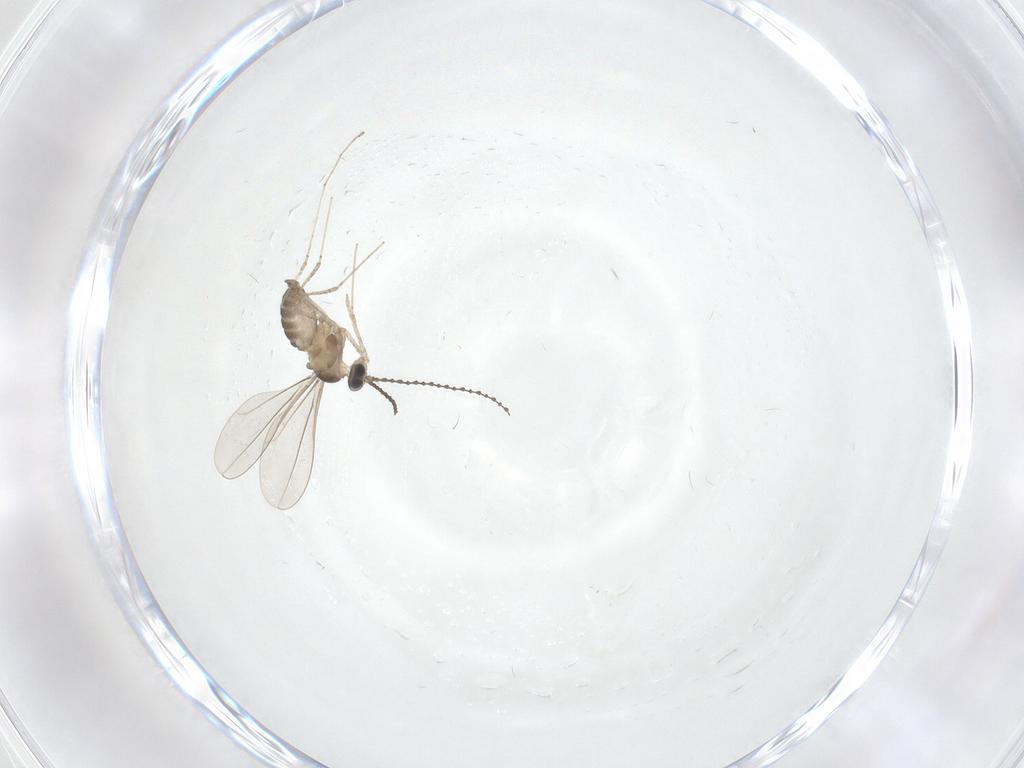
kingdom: Animalia
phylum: Arthropoda
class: Insecta
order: Diptera
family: Cecidomyiidae
